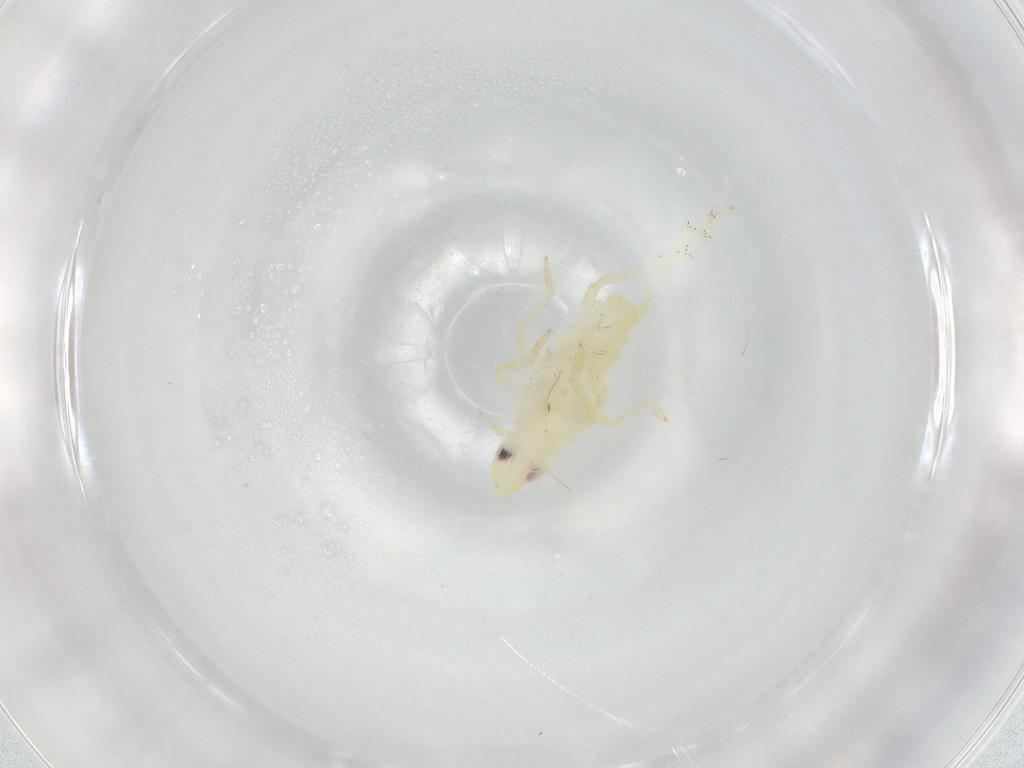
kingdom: Animalia
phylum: Arthropoda
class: Insecta
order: Hemiptera
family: Tropiduchidae
